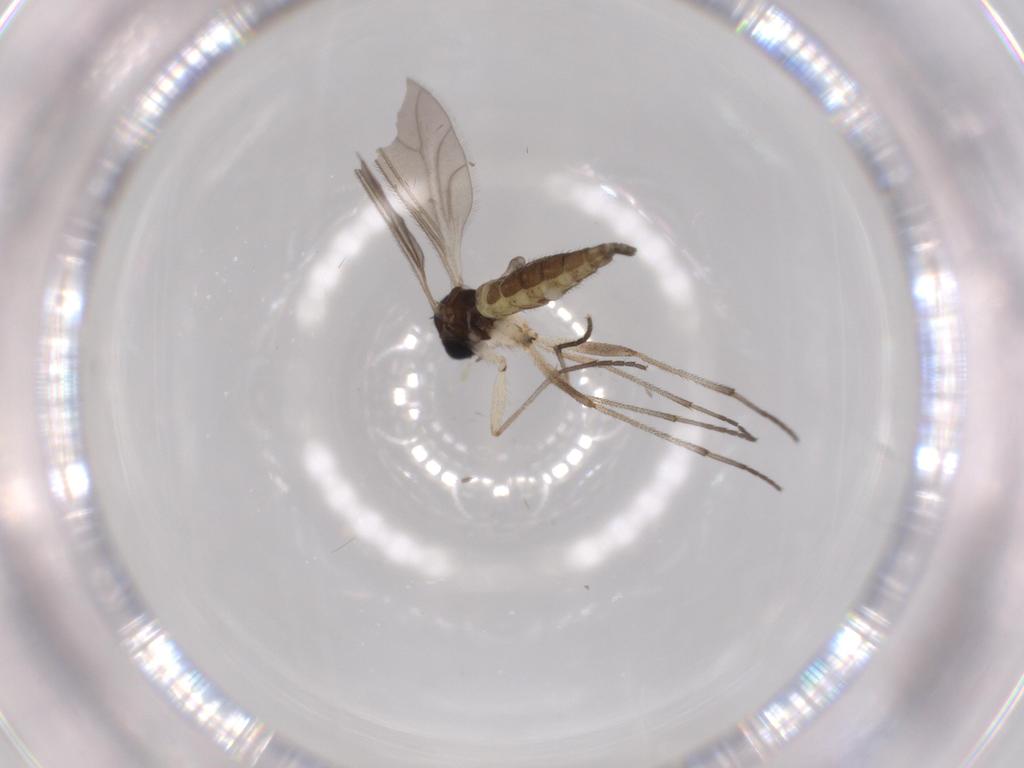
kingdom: Animalia
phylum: Arthropoda
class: Insecta
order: Diptera
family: Sciaridae
